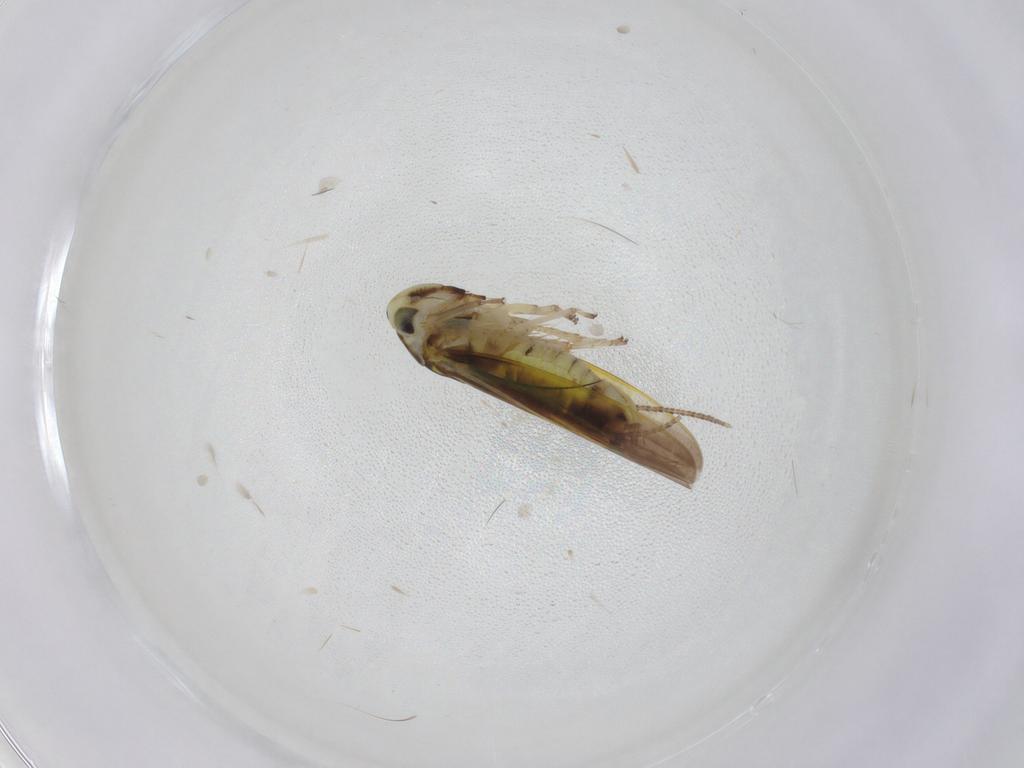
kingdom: Animalia
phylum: Arthropoda
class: Insecta
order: Hemiptera
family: Cicadellidae
